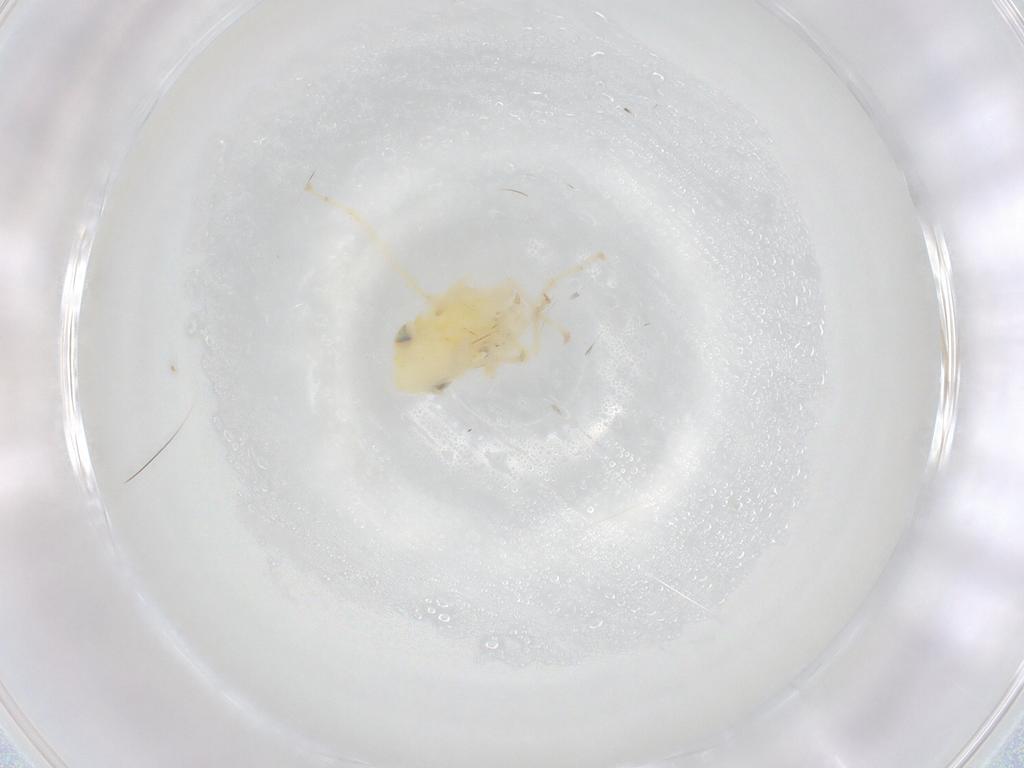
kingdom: Animalia
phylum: Arthropoda
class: Insecta
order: Hemiptera
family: Cicadellidae
